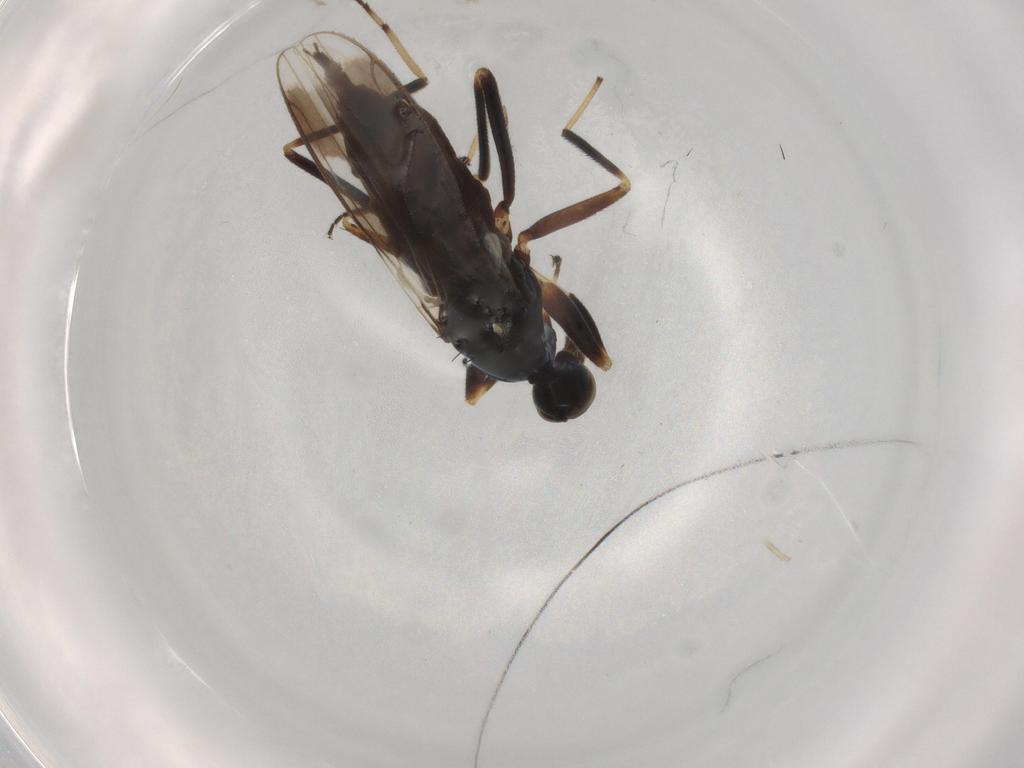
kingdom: Animalia
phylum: Arthropoda
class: Insecta
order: Diptera
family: Hybotidae
